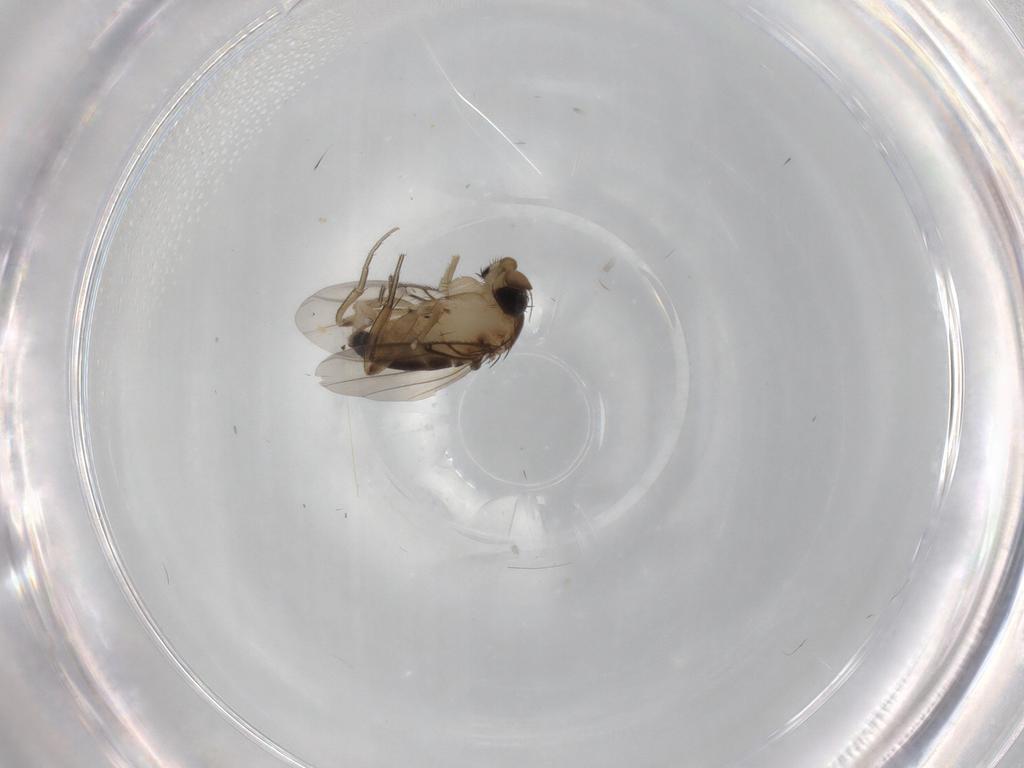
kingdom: Animalia
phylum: Arthropoda
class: Insecta
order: Diptera
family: Phoridae
